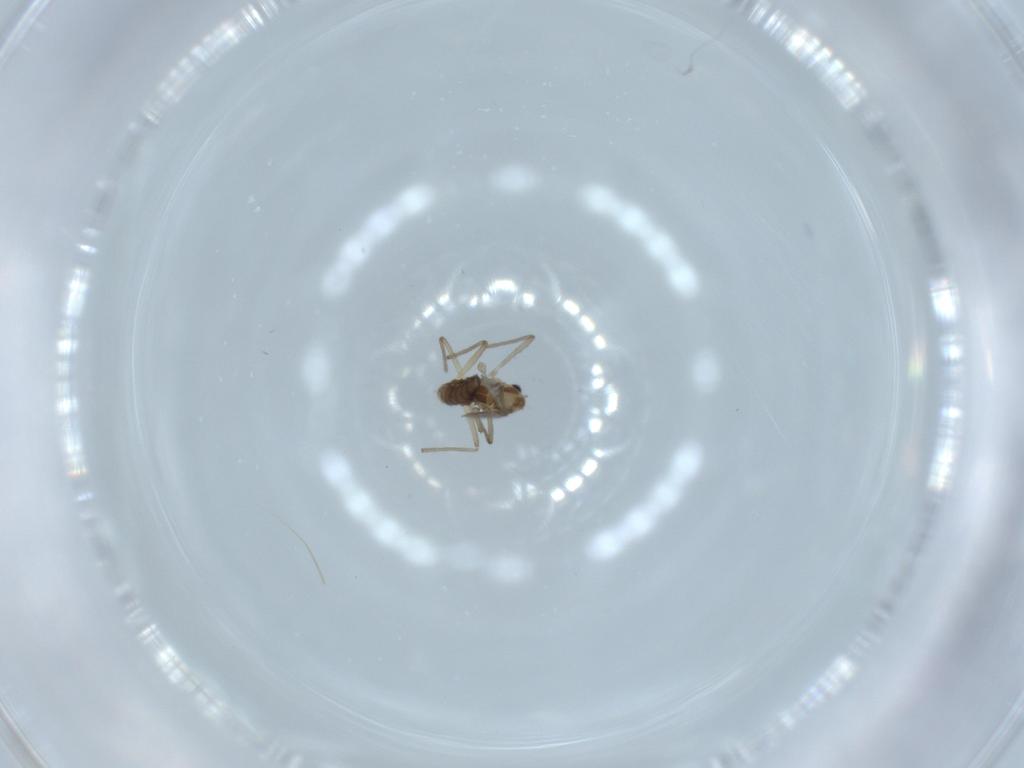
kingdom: Animalia
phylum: Arthropoda
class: Insecta
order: Diptera
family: Chironomidae
